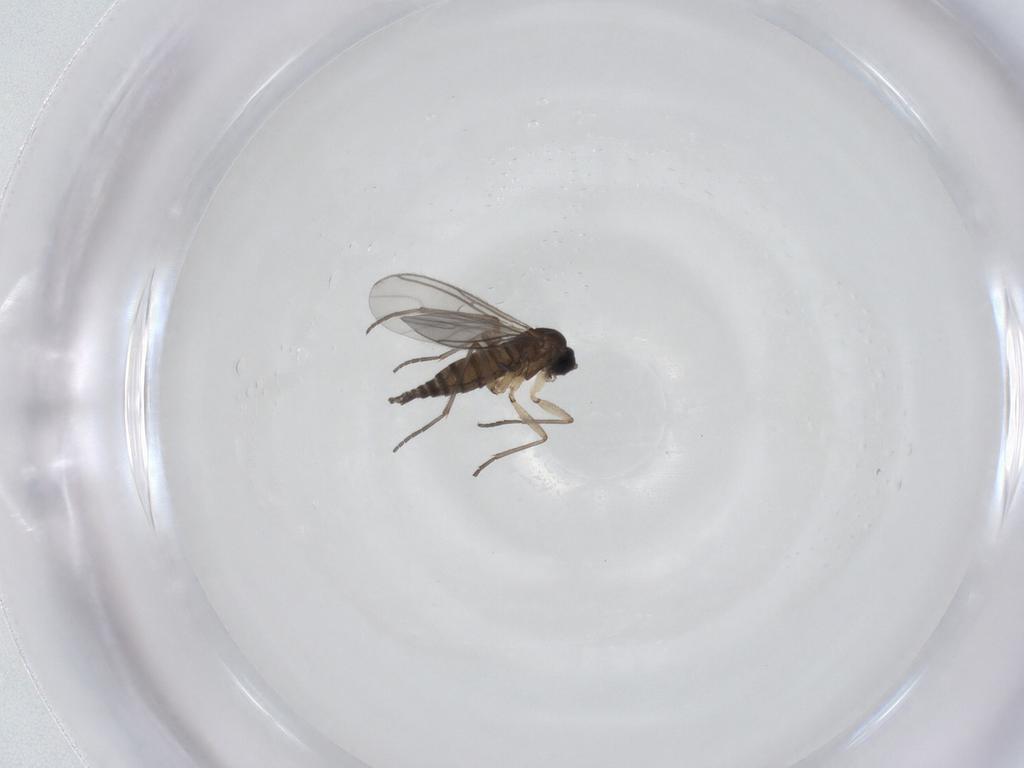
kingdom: Animalia
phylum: Arthropoda
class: Insecta
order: Diptera
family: Sciaridae
